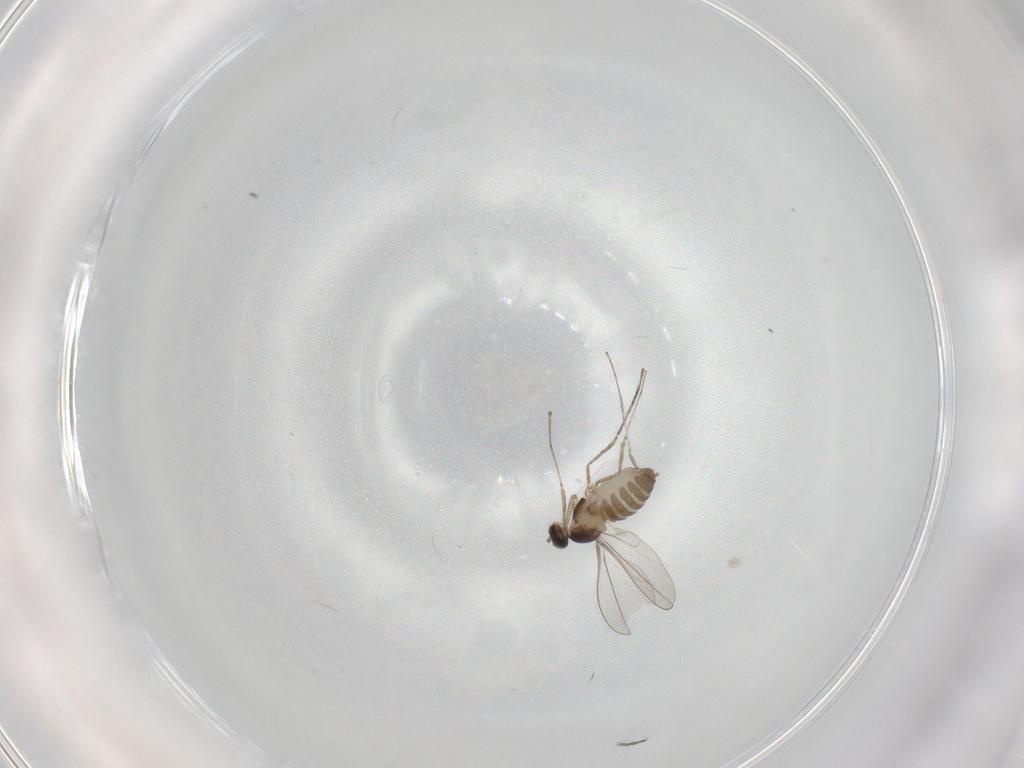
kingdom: Animalia
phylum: Arthropoda
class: Insecta
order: Diptera
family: Cecidomyiidae
